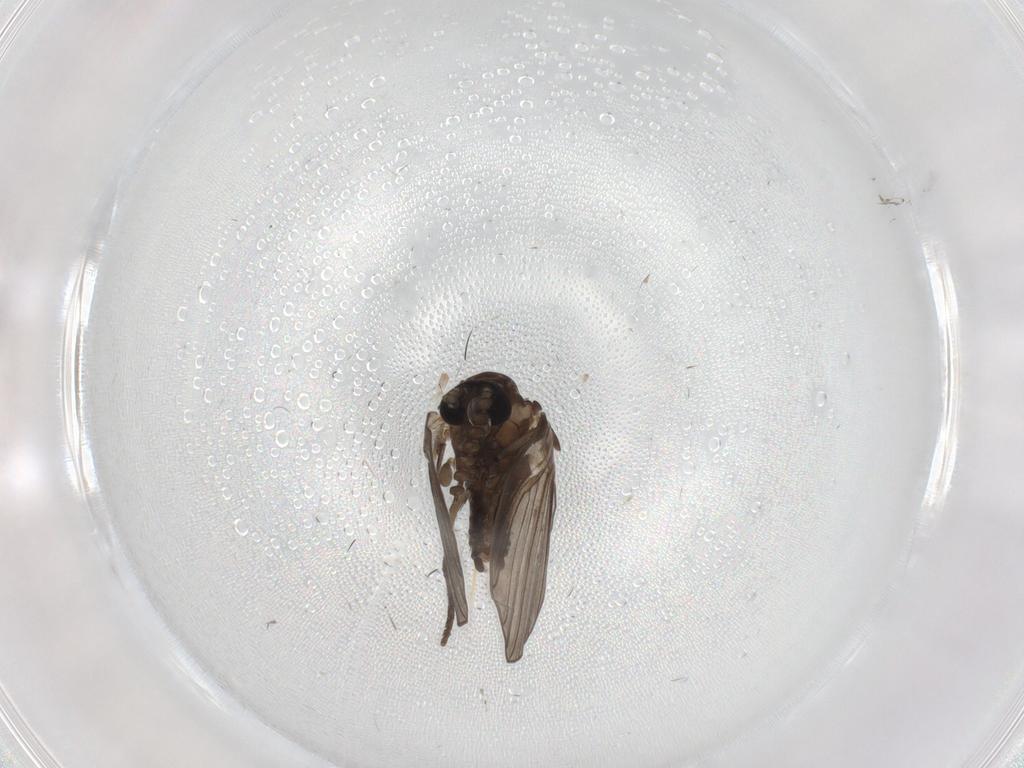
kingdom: Animalia
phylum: Arthropoda
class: Insecta
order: Diptera
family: Psychodidae
